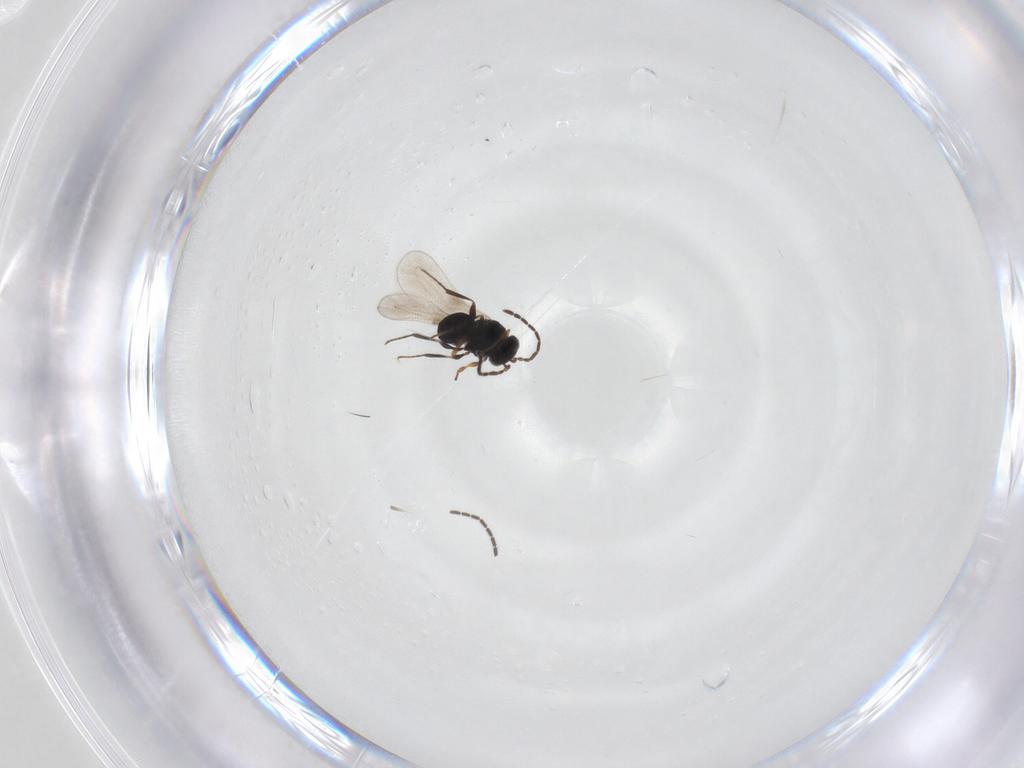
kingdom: Animalia
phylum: Arthropoda
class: Insecta
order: Hymenoptera
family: Platygastridae
